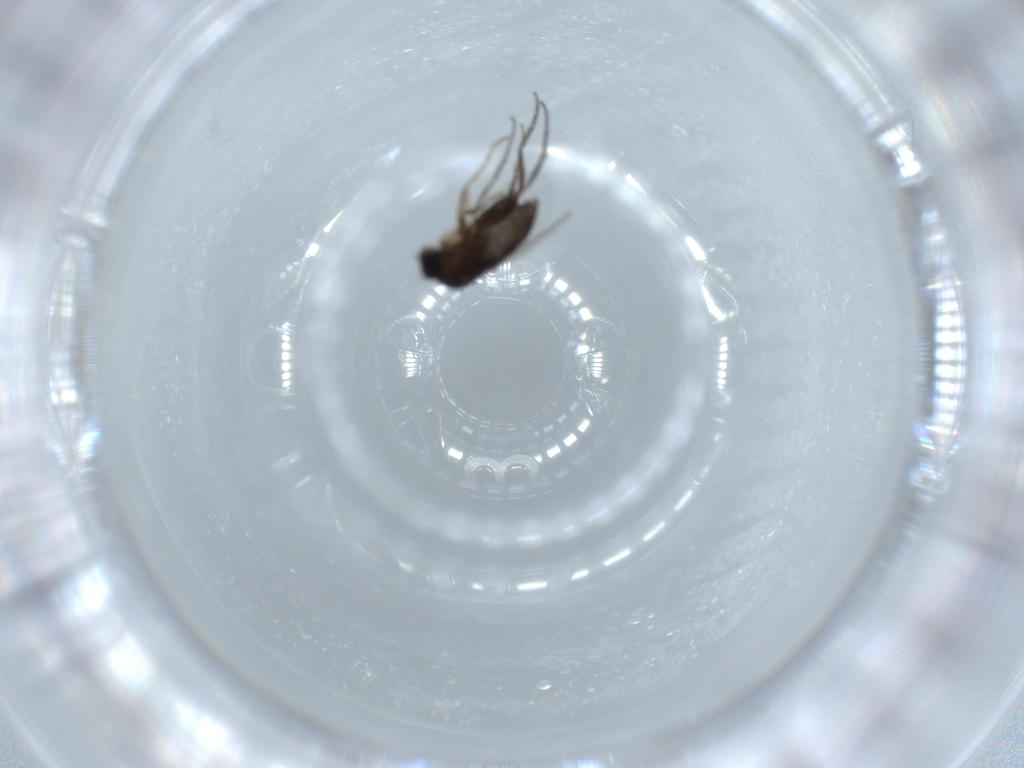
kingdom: Animalia
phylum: Arthropoda
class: Insecta
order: Diptera
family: Phoridae
